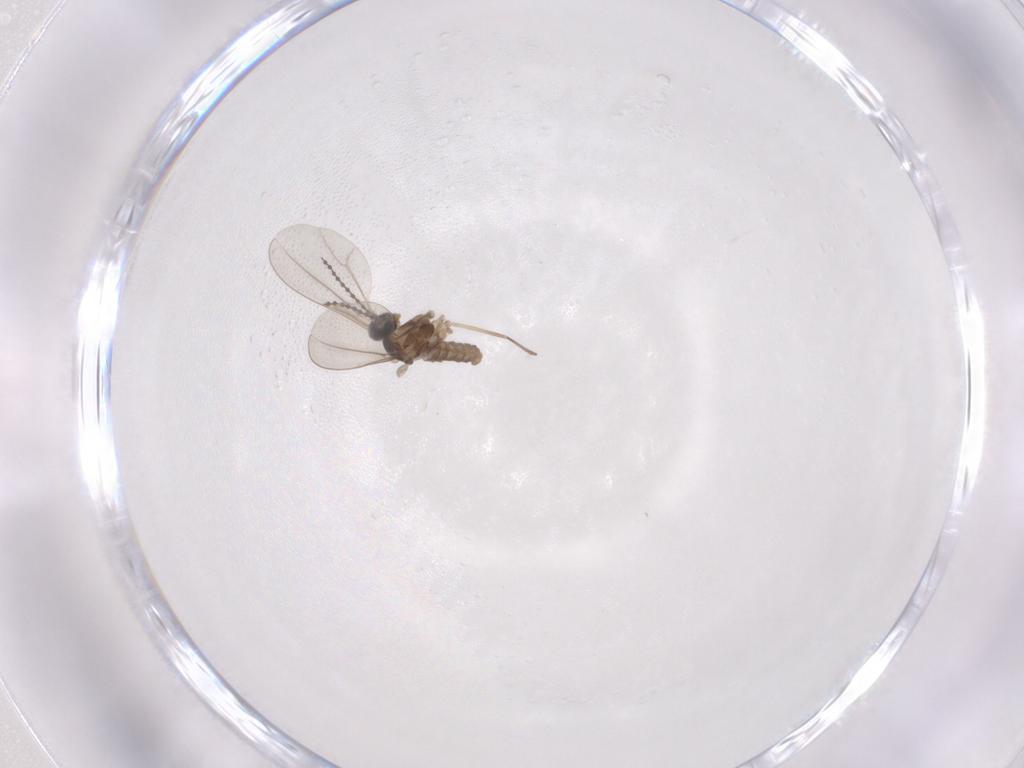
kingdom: Animalia
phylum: Arthropoda
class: Insecta
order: Diptera
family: Cecidomyiidae
